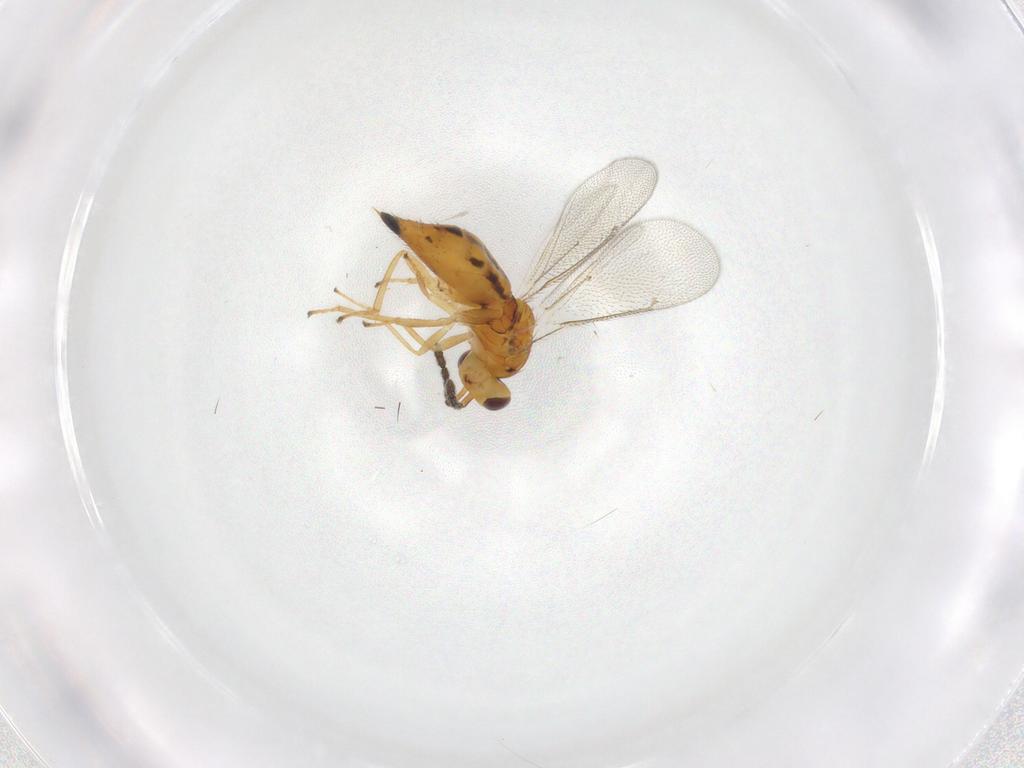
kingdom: Animalia
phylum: Arthropoda
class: Insecta
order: Hymenoptera
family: Eulophidae
